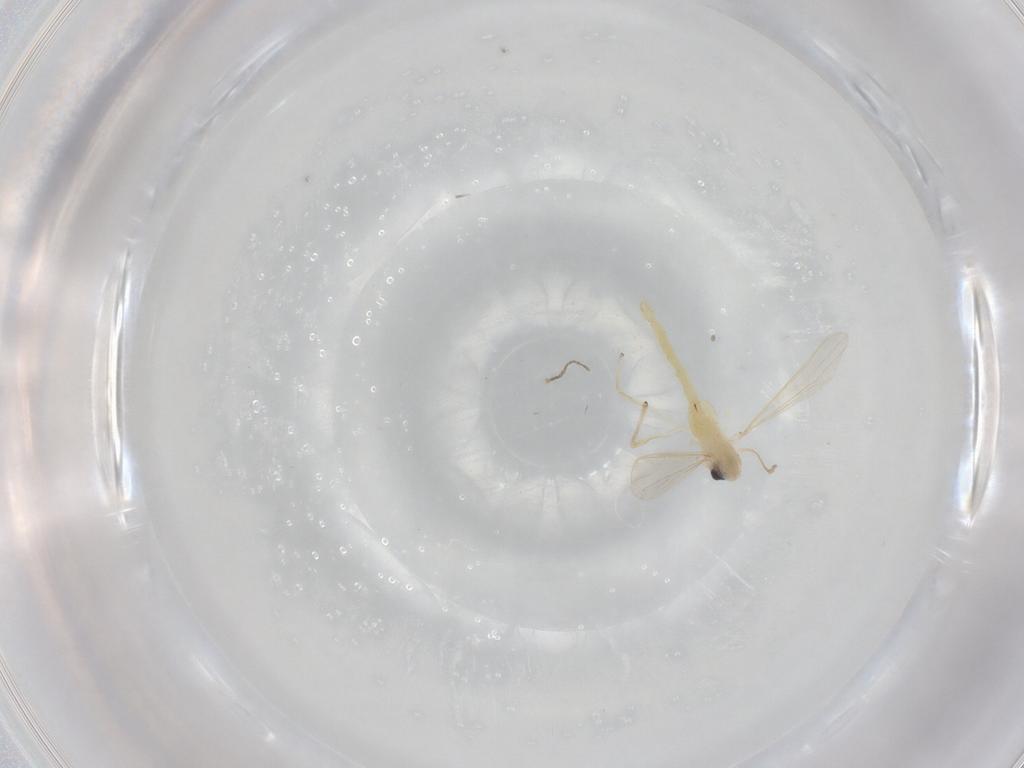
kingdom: Animalia
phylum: Arthropoda
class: Insecta
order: Diptera
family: Chironomidae
